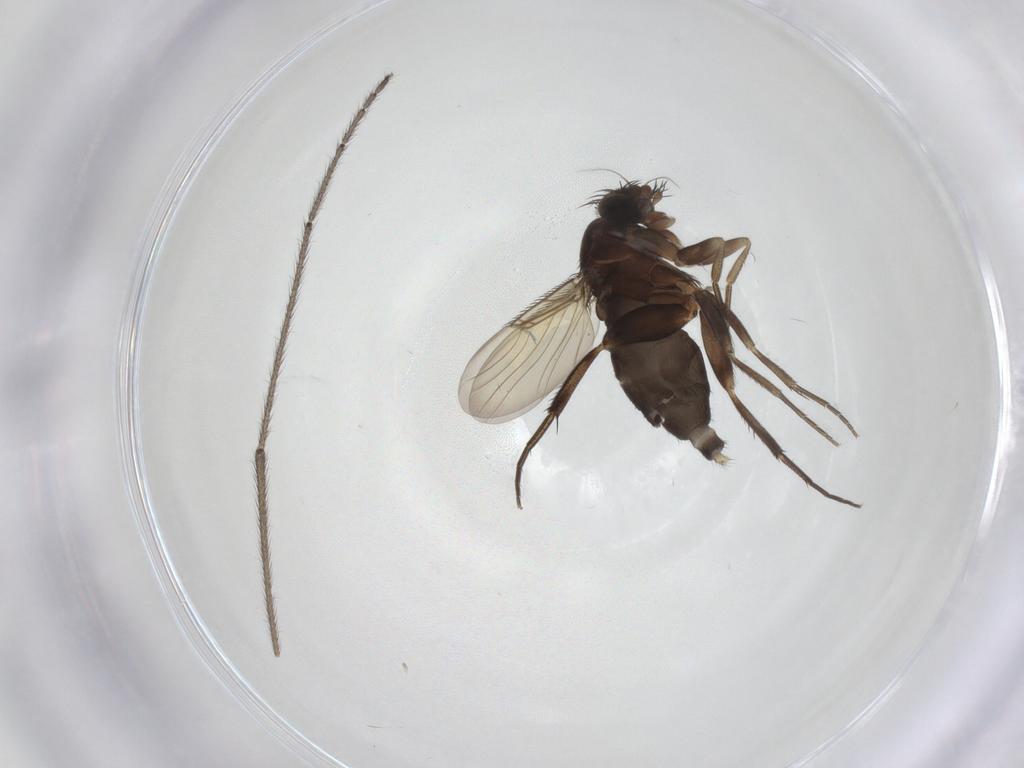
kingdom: Animalia
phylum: Arthropoda
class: Insecta
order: Diptera
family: Phoridae
